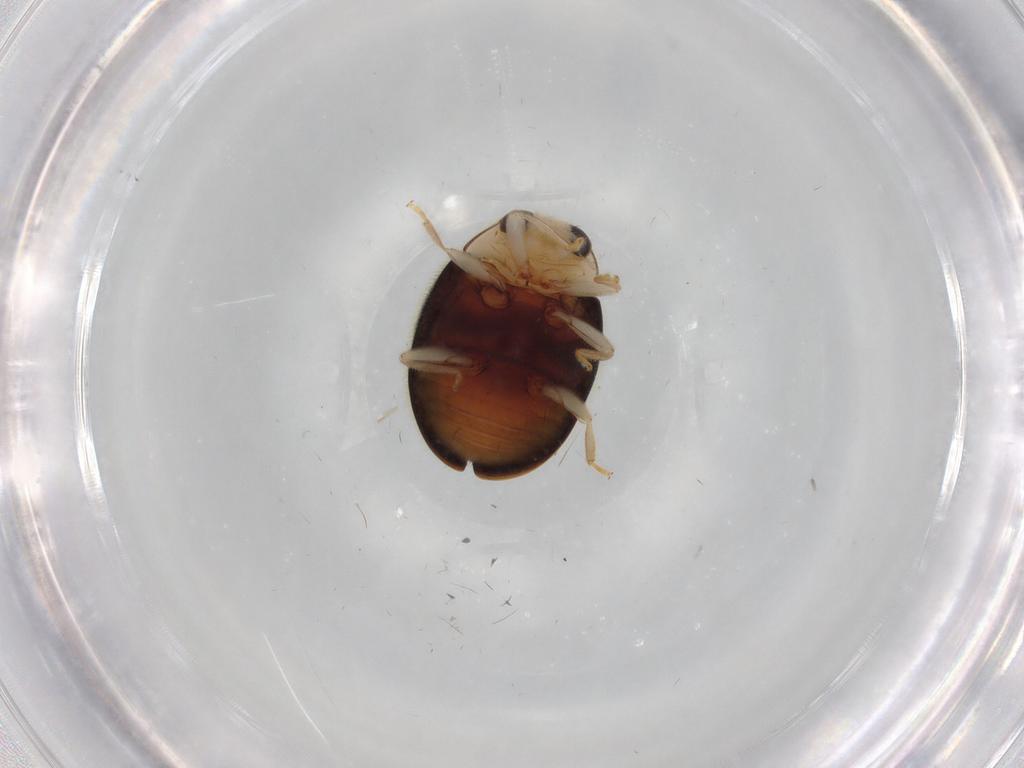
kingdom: Animalia
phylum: Arthropoda
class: Insecta
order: Coleoptera
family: Coccinellidae
